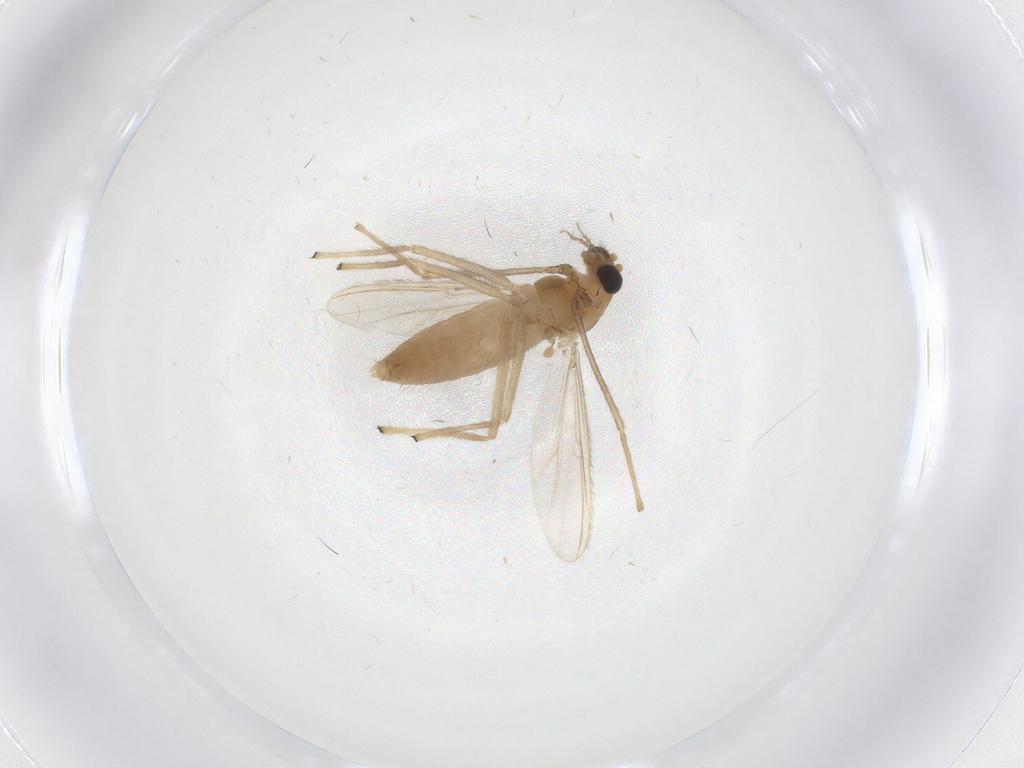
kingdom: Animalia
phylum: Arthropoda
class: Insecta
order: Diptera
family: Chironomidae
